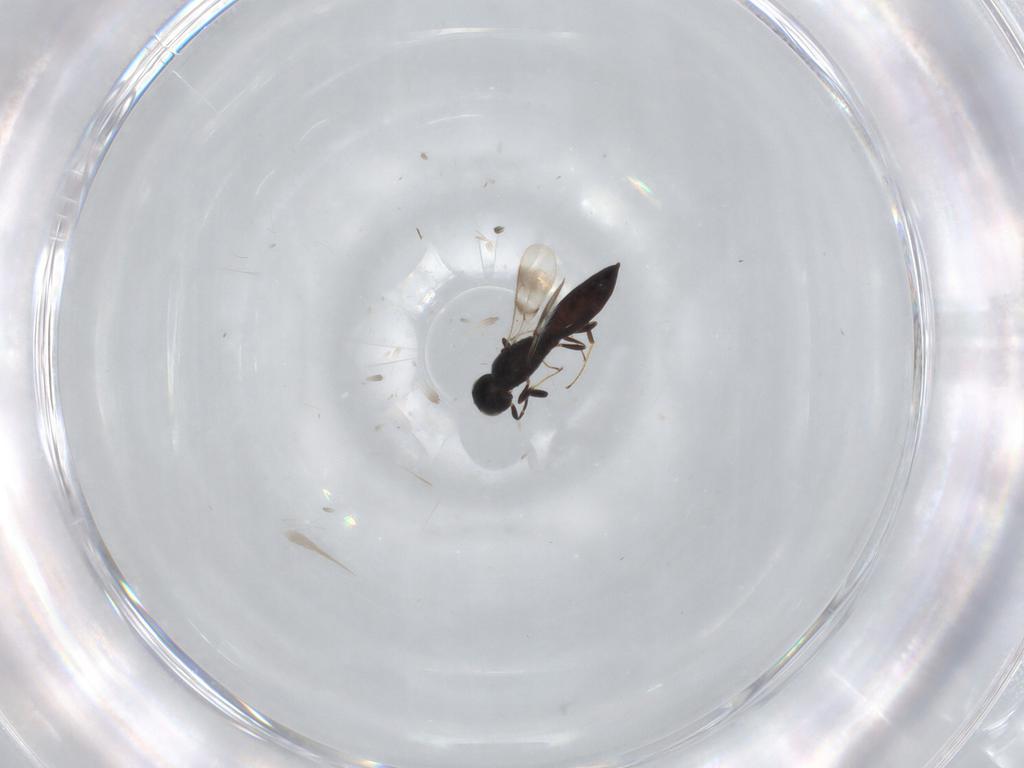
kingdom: Animalia
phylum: Arthropoda
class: Insecta
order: Hymenoptera
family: Scelionidae
